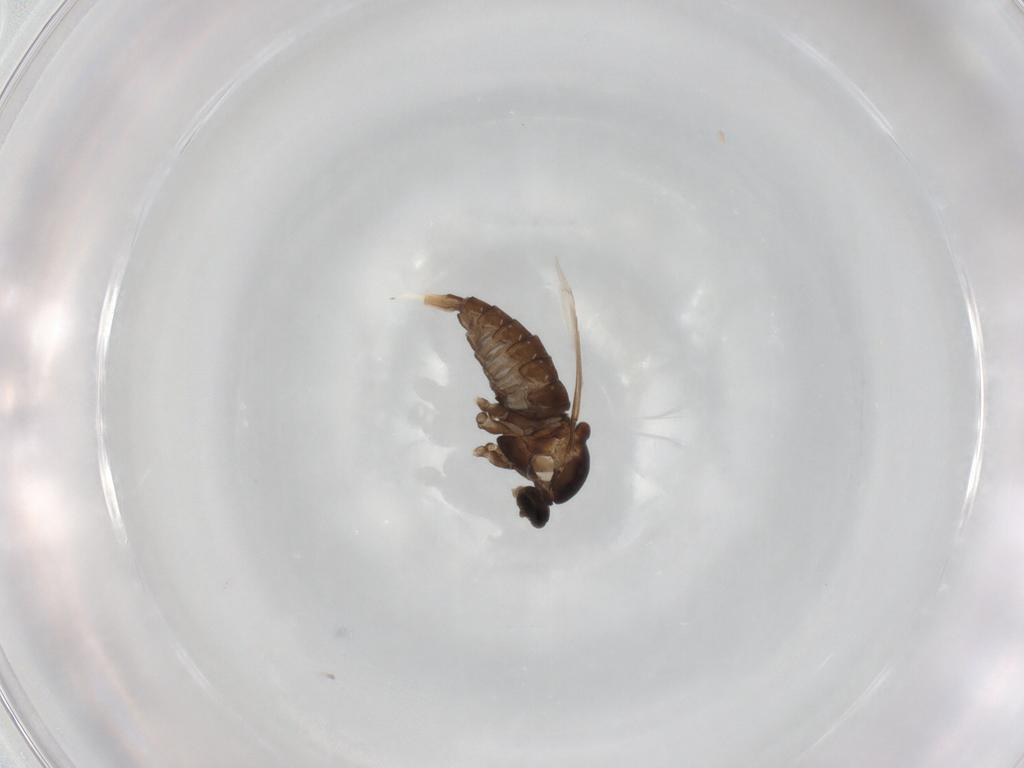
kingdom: Animalia
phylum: Arthropoda
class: Insecta
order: Diptera
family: Cecidomyiidae
